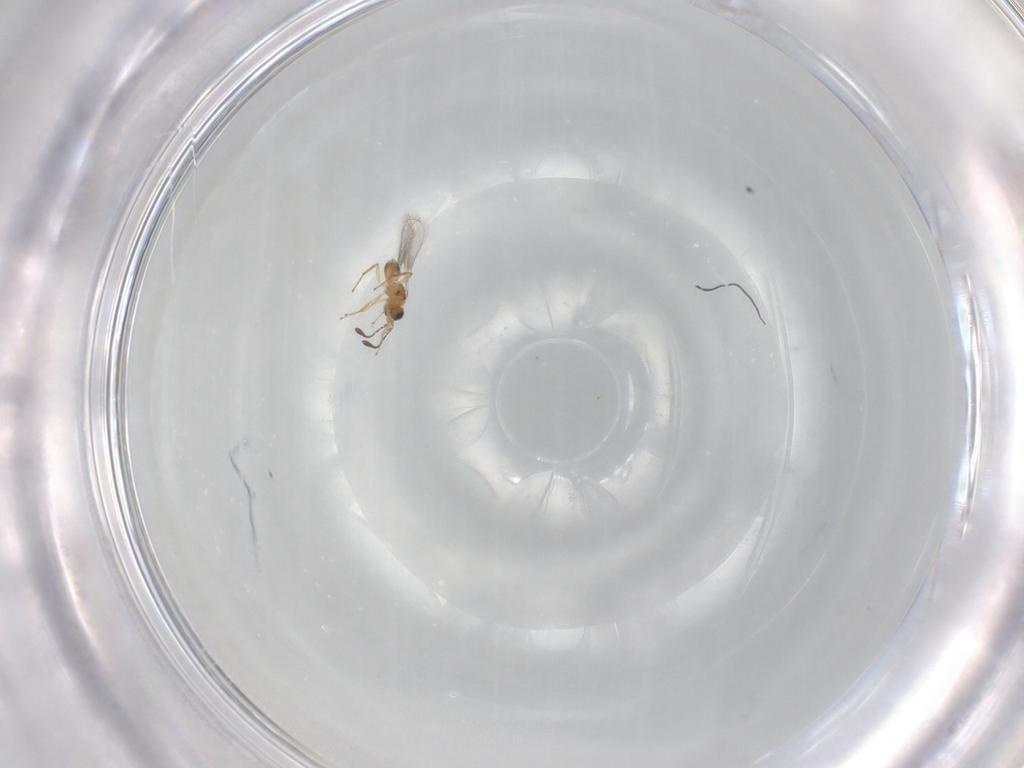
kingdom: Animalia
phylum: Arthropoda
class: Insecta
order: Hymenoptera
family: Mymaridae
